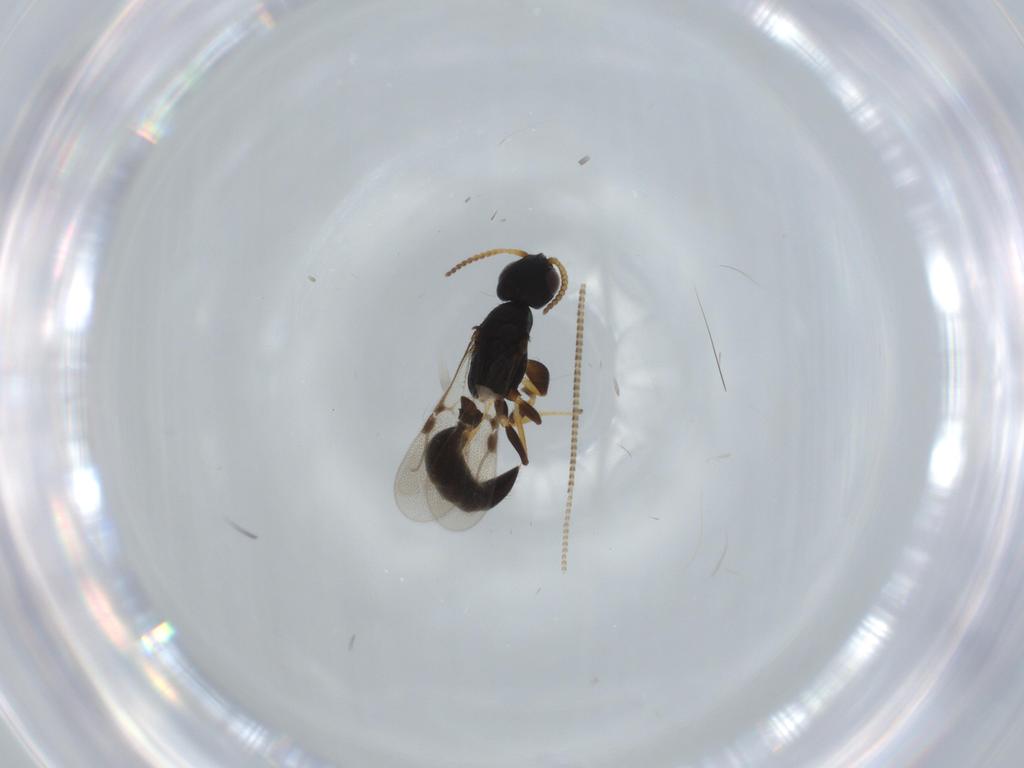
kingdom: Animalia
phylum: Arthropoda
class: Insecta
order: Hymenoptera
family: Bethylidae
